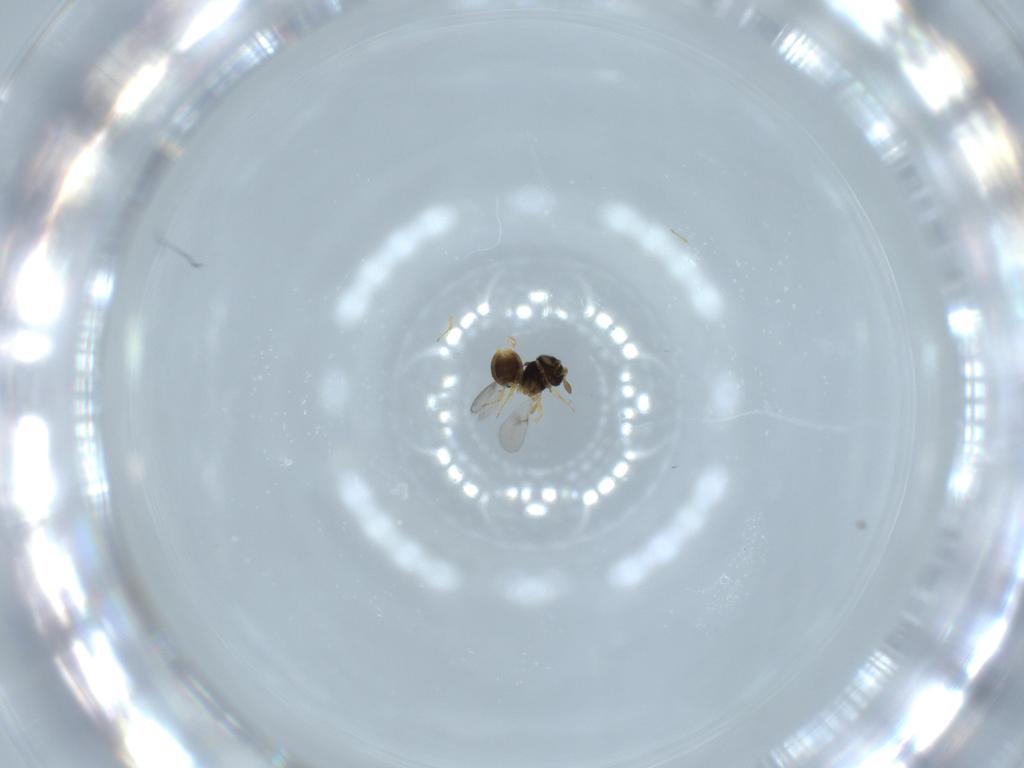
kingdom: Animalia
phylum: Arthropoda
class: Insecta
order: Hymenoptera
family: Scelionidae
